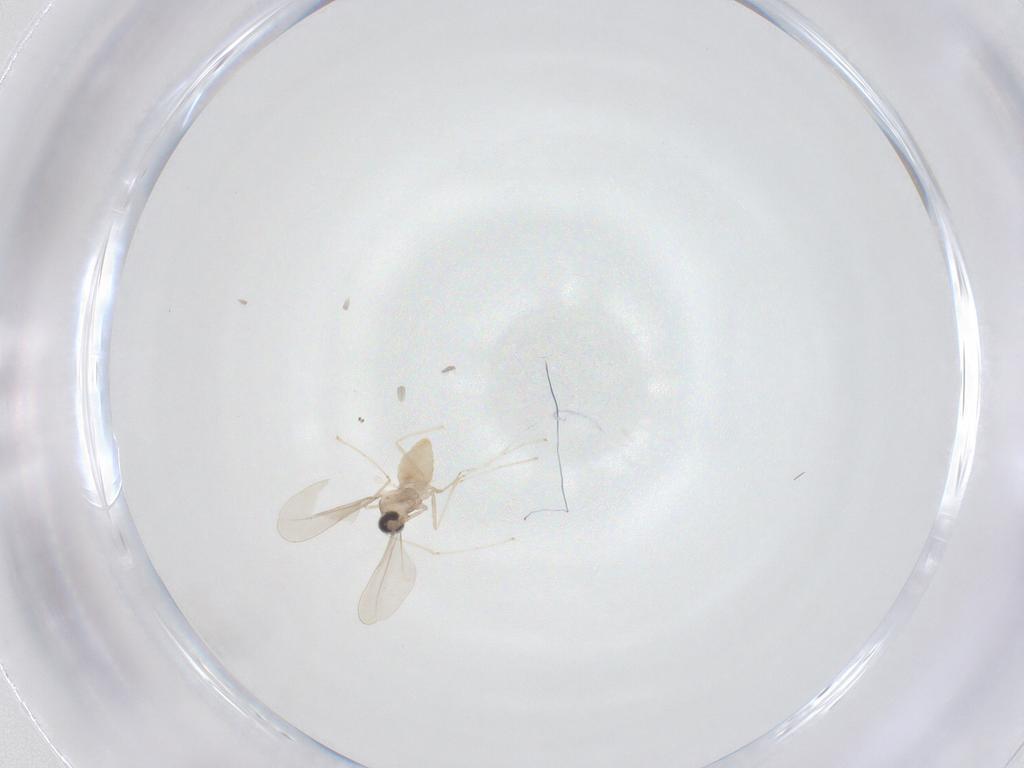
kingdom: Animalia
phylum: Arthropoda
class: Insecta
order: Diptera
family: Cecidomyiidae
